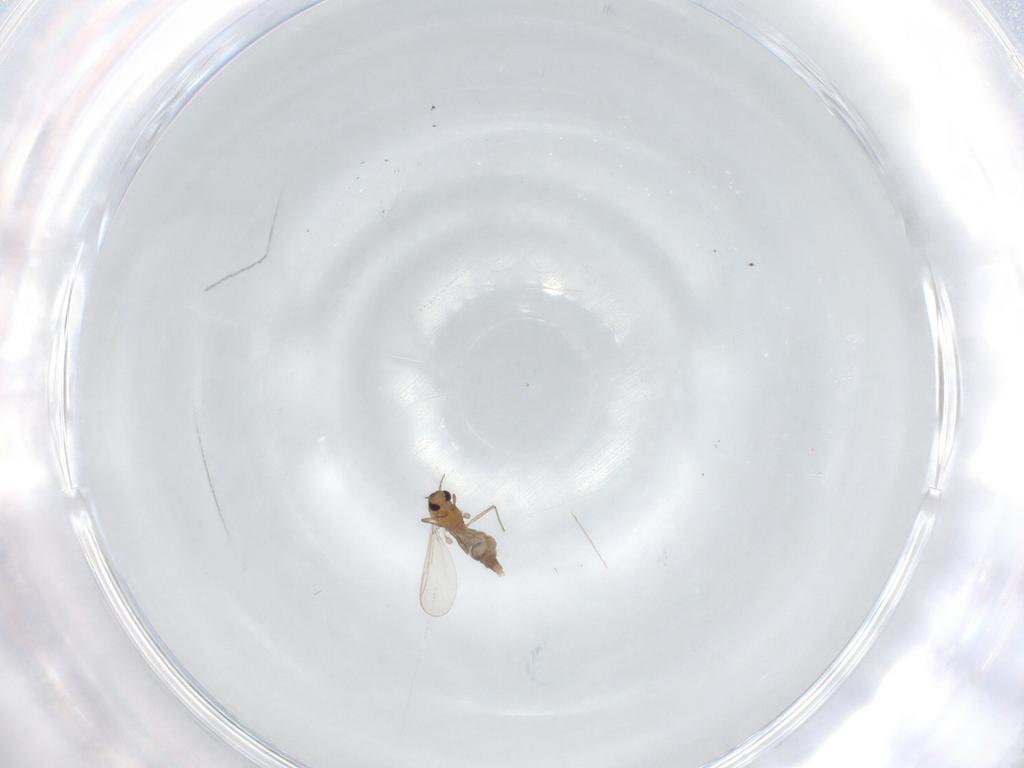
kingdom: Animalia
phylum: Arthropoda
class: Insecta
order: Diptera
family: Chironomidae
